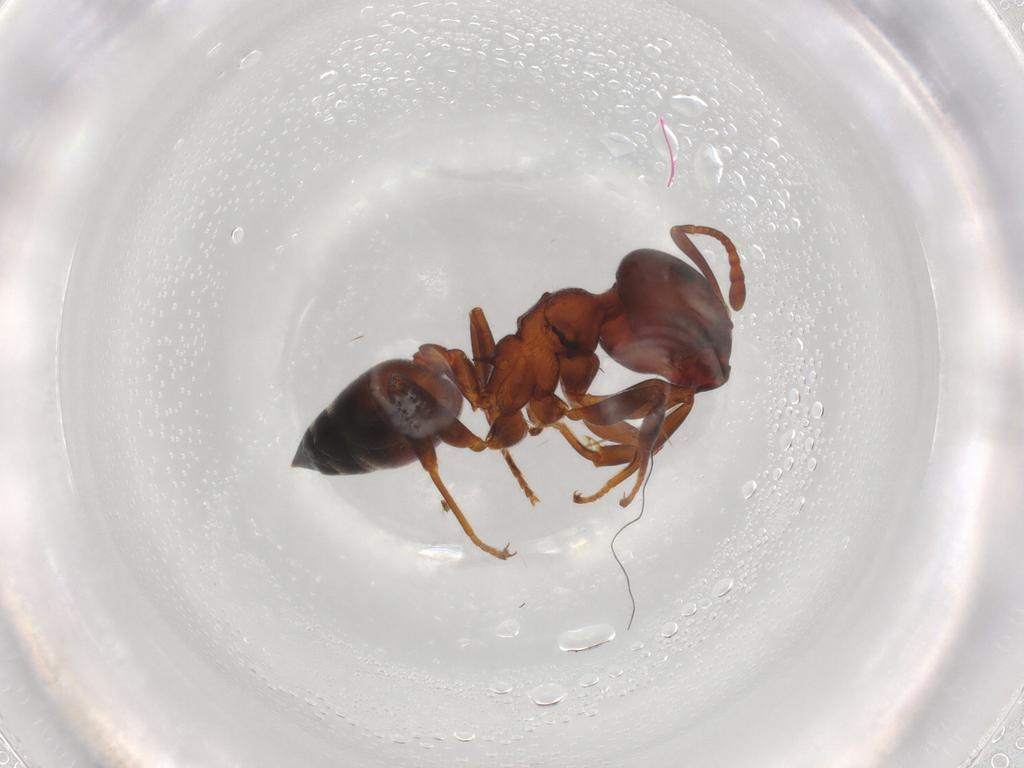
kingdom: Animalia
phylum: Arthropoda
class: Insecta
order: Hymenoptera
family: Formicidae
